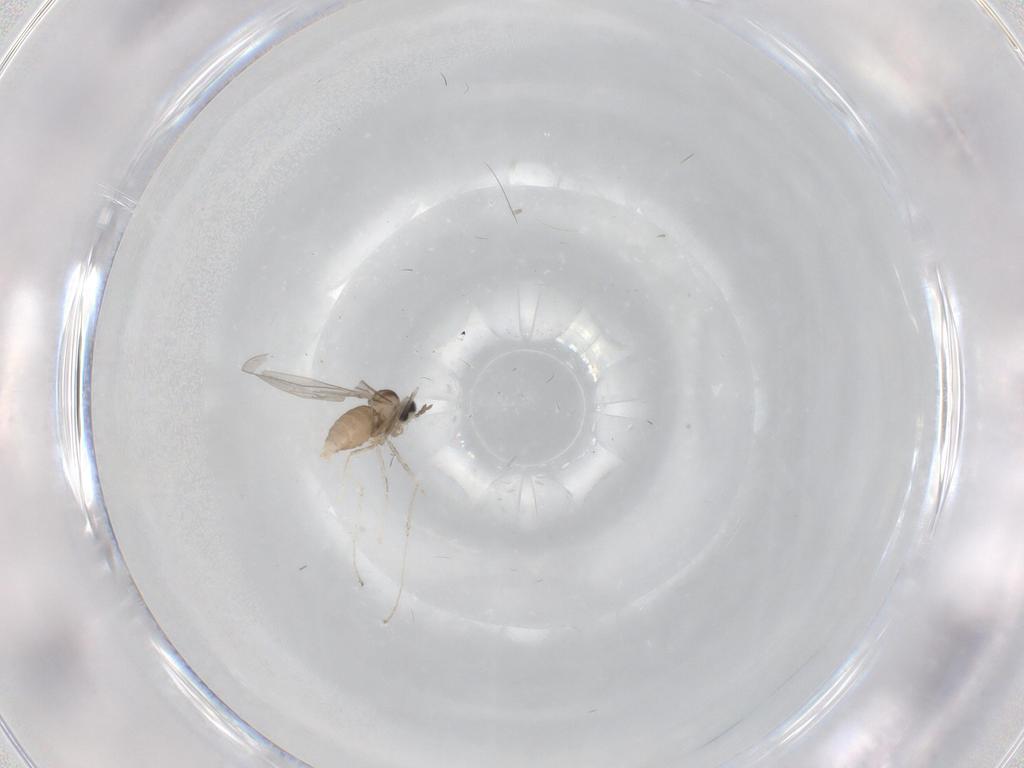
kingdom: Animalia
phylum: Arthropoda
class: Insecta
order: Diptera
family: Cecidomyiidae
